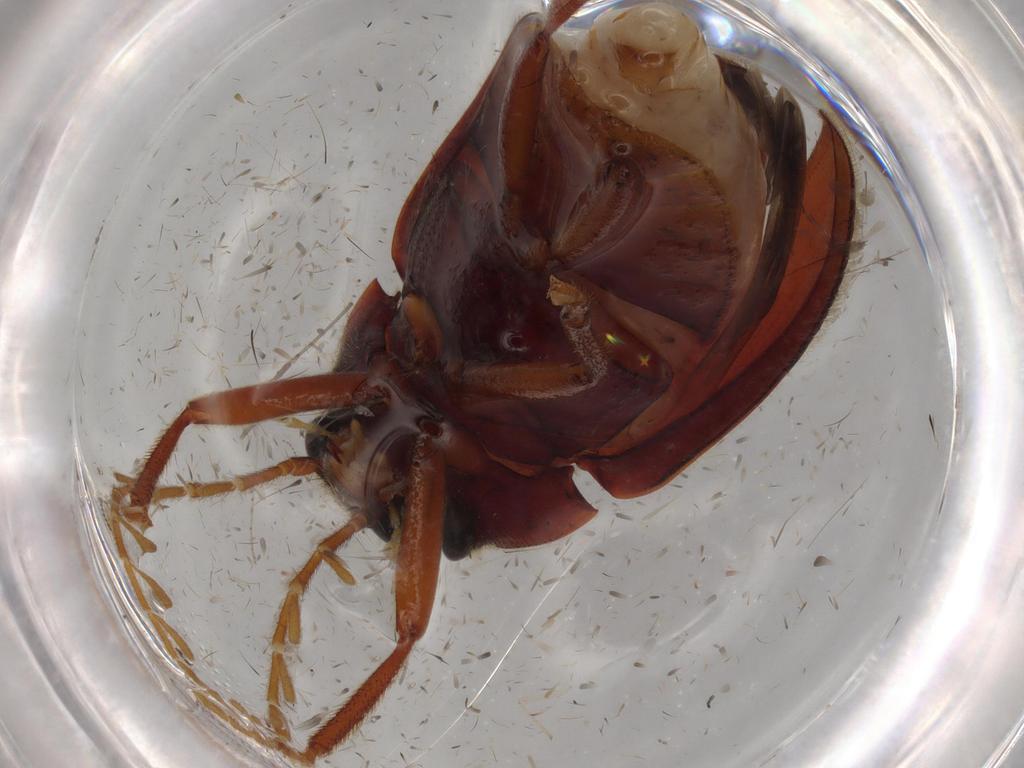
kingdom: Animalia
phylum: Arthropoda
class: Insecta
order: Coleoptera
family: Ptilodactylidae
